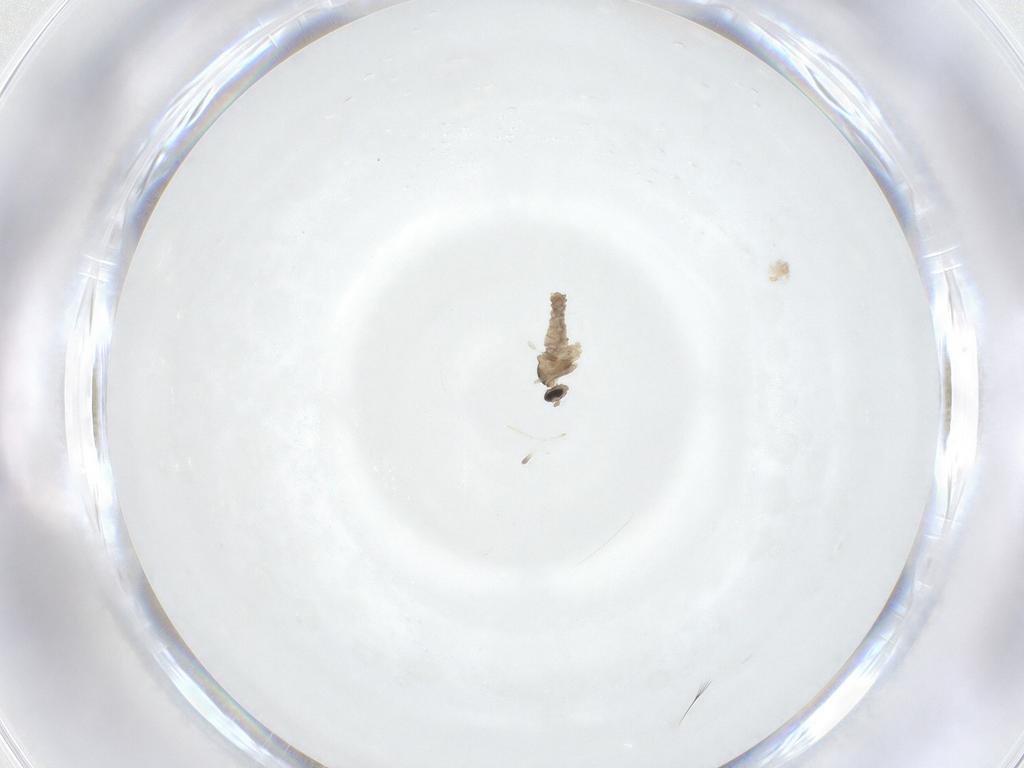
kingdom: Animalia
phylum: Arthropoda
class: Insecta
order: Diptera
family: Cecidomyiidae
